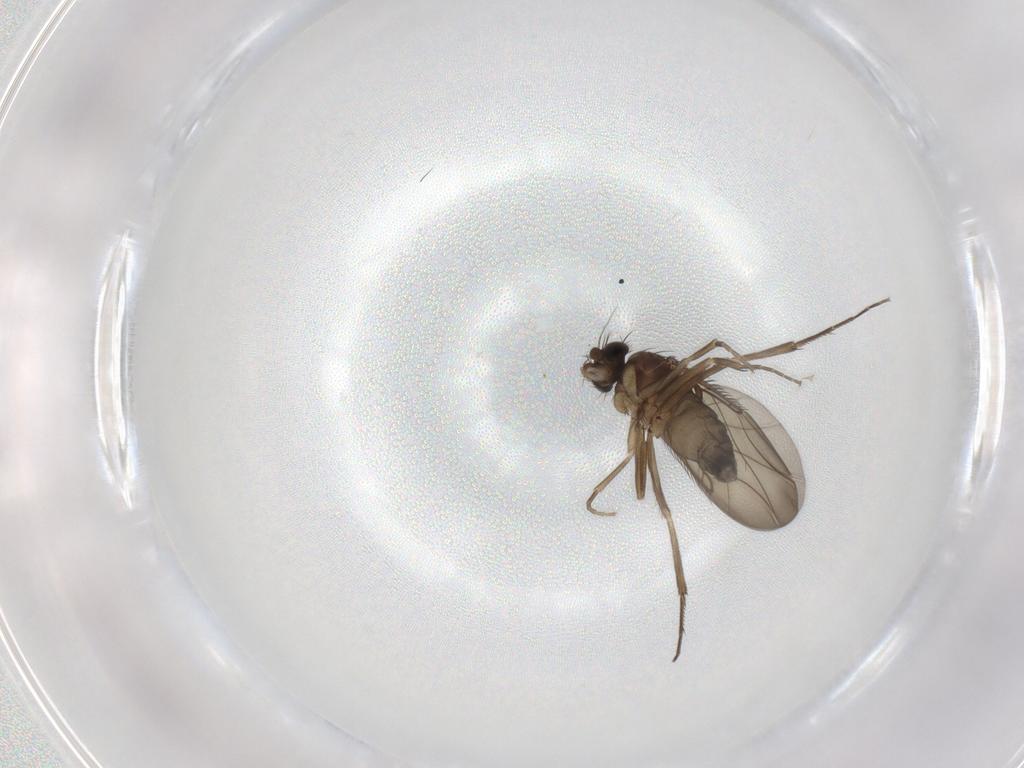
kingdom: Animalia
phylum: Arthropoda
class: Insecta
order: Diptera
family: Phoridae
